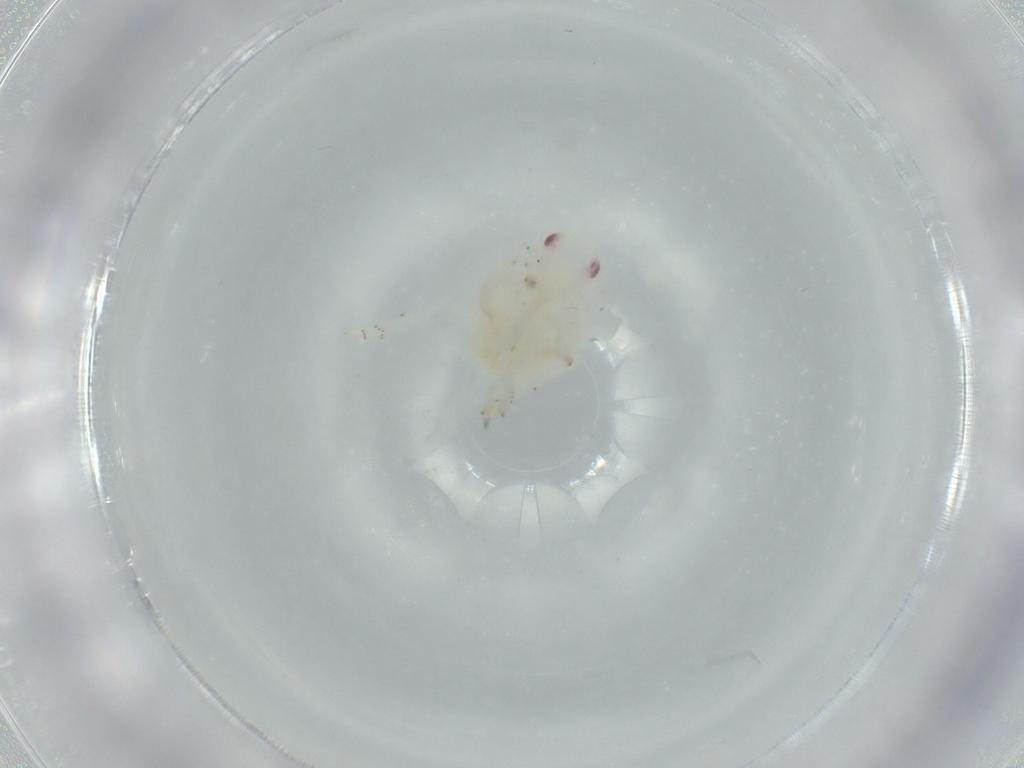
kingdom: Animalia
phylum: Arthropoda
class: Insecta
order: Hemiptera
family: Flatidae
